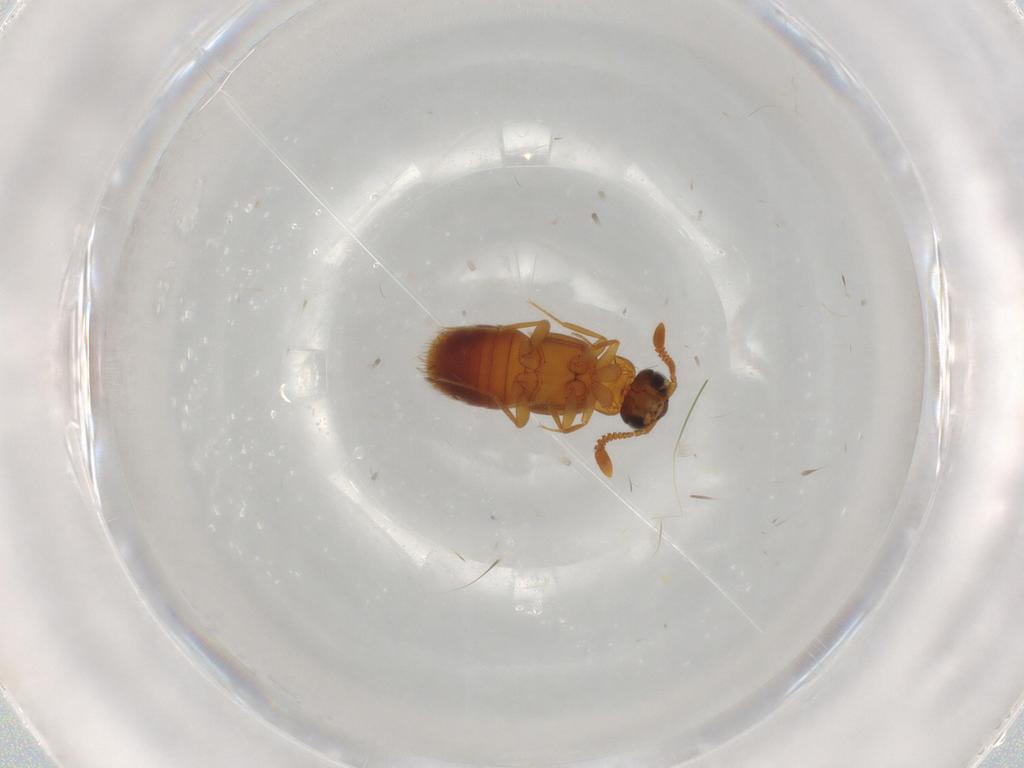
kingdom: Animalia
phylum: Arthropoda
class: Insecta
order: Coleoptera
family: Staphylinidae
